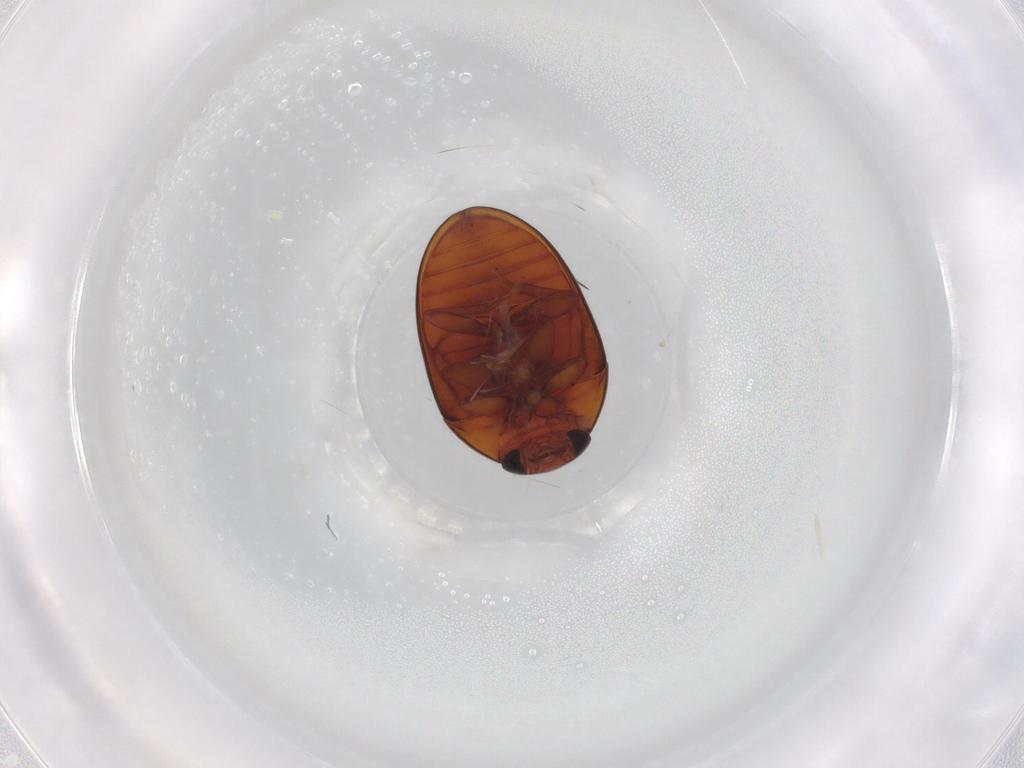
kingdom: Animalia
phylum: Arthropoda
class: Insecta
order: Coleoptera
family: Phalacridae
